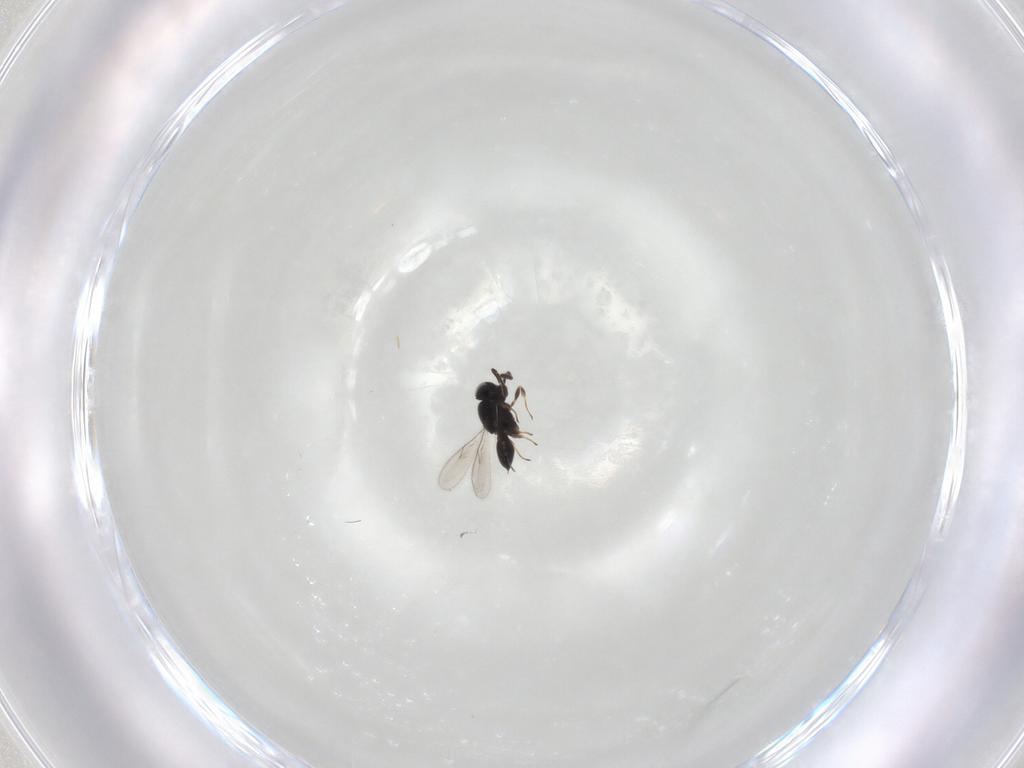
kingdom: Animalia
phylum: Arthropoda
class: Insecta
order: Hymenoptera
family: Scelionidae
